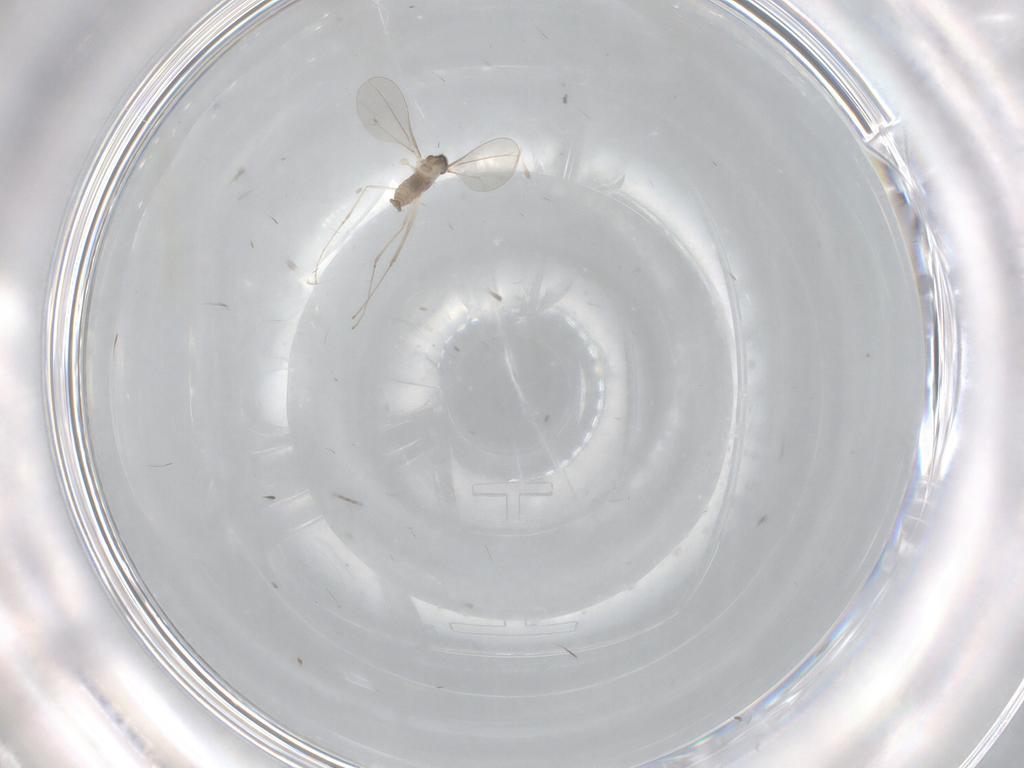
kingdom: Animalia
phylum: Arthropoda
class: Insecta
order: Diptera
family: Cecidomyiidae
